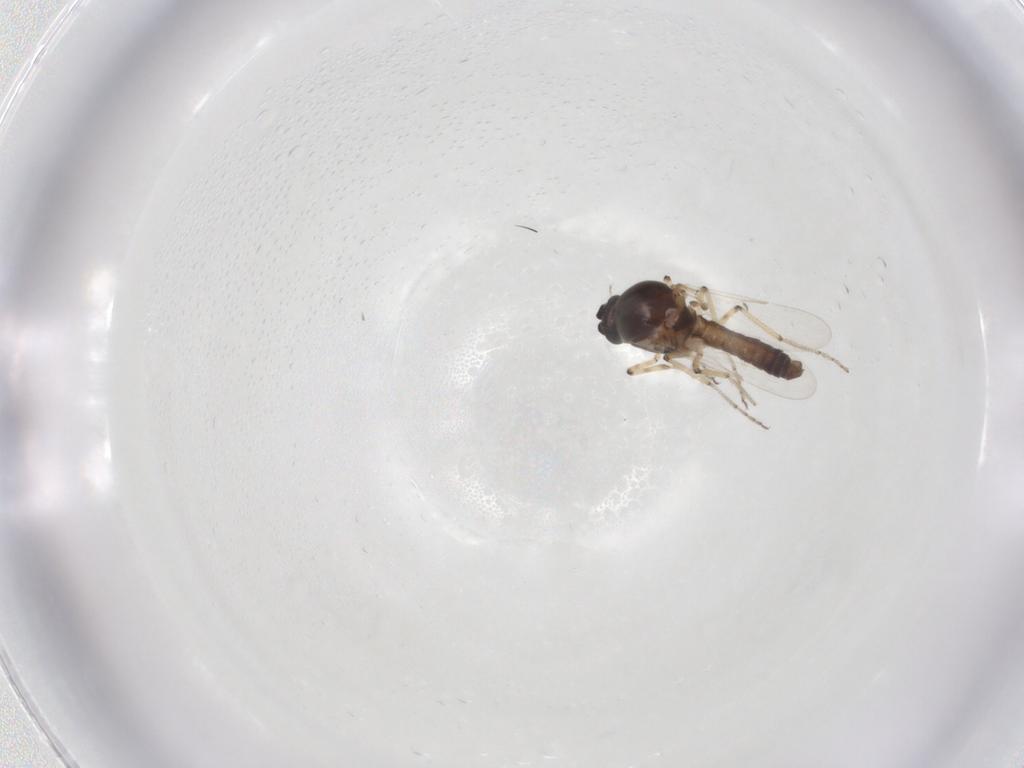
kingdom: Animalia
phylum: Arthropoda
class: Insecta
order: Diptera
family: Ceratopogonidae
